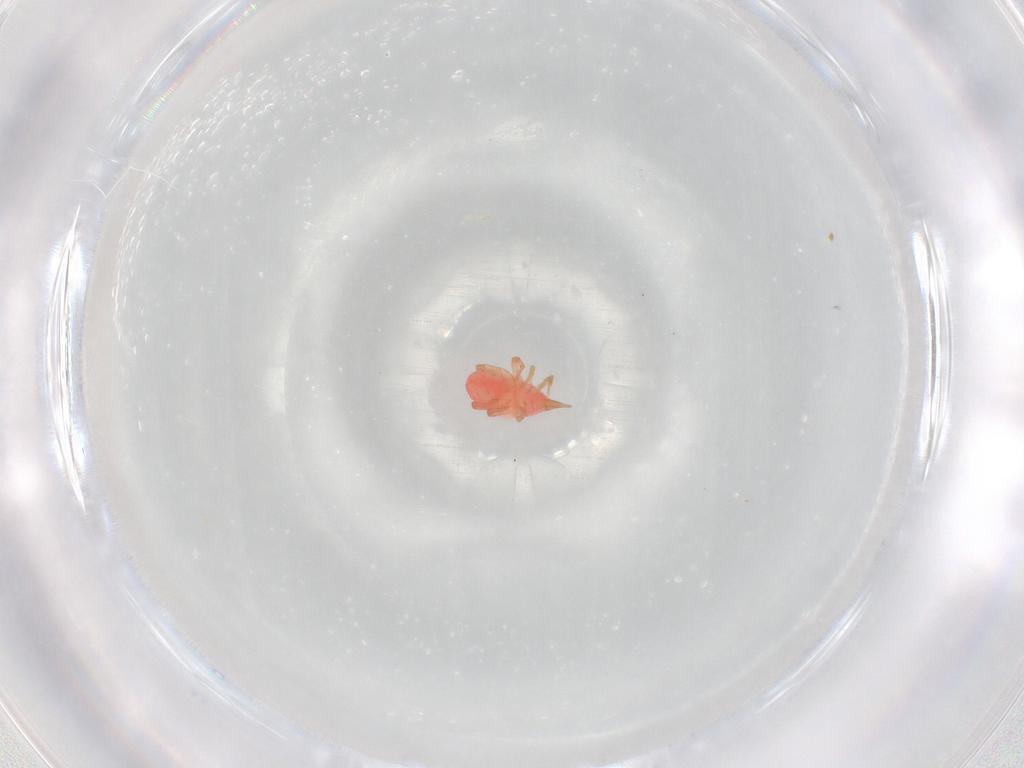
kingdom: Animalia
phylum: Arthropoda
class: Arachnida
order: Trombidiformes
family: Bdellidae
